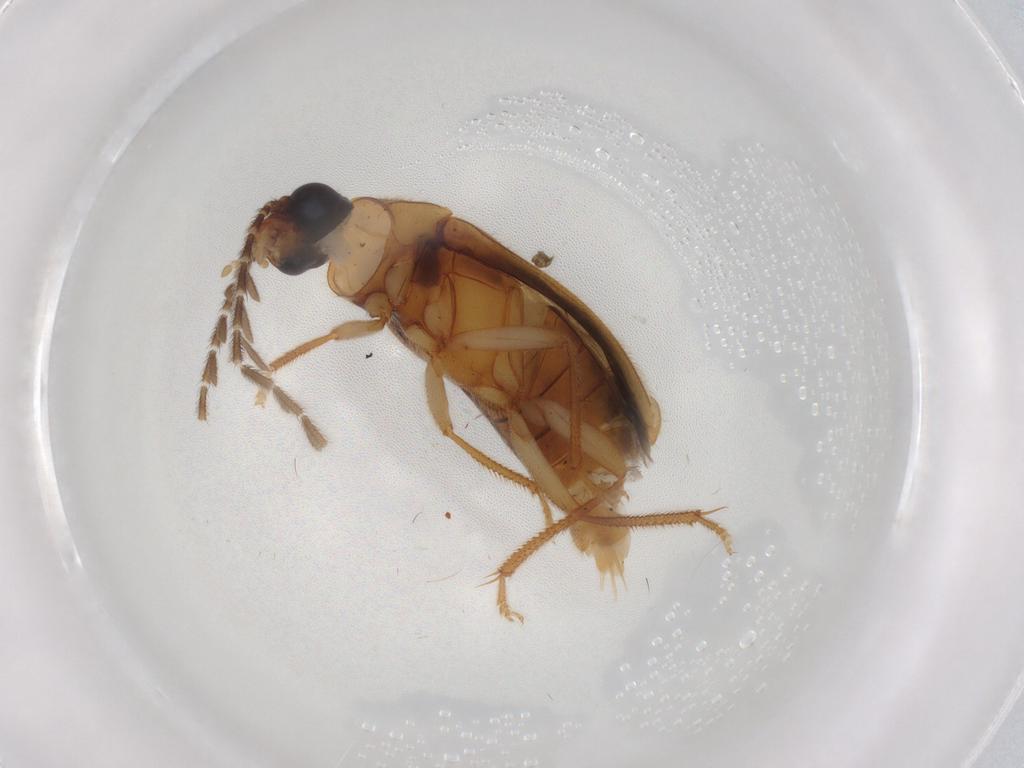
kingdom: Animalia
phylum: Arthropoda
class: Insecta
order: Coleoptera
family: Ptilodactylidae
